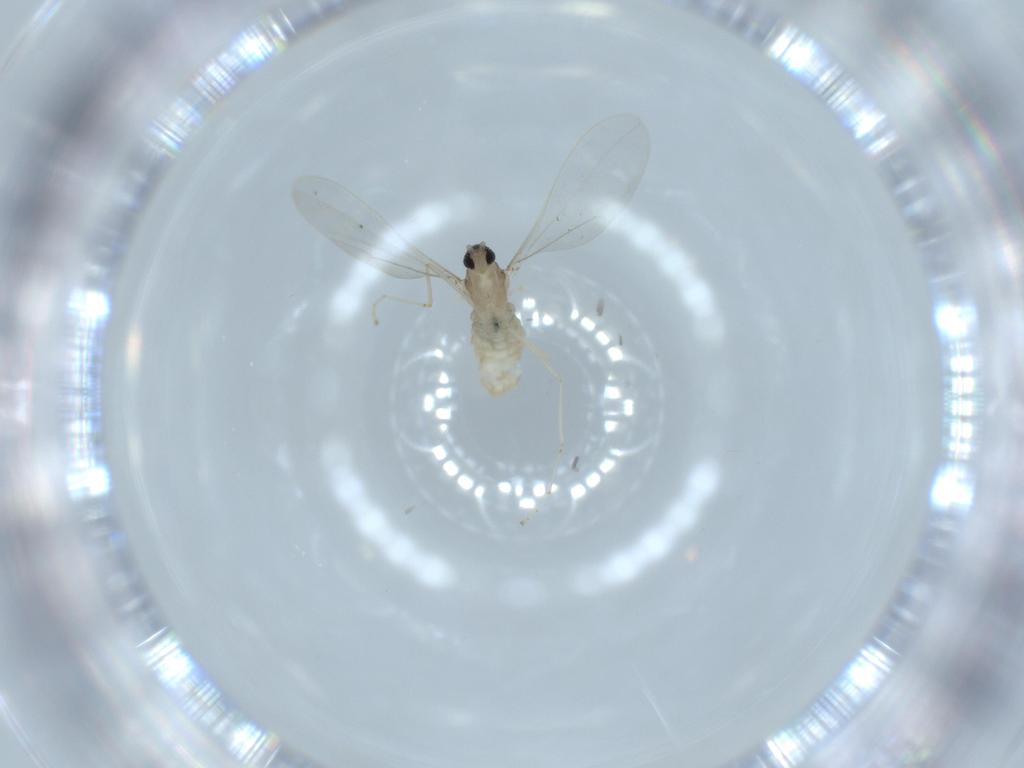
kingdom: Animalia
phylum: Arthropoda
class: Insecta
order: Diptera
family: Cecidomyiidae
